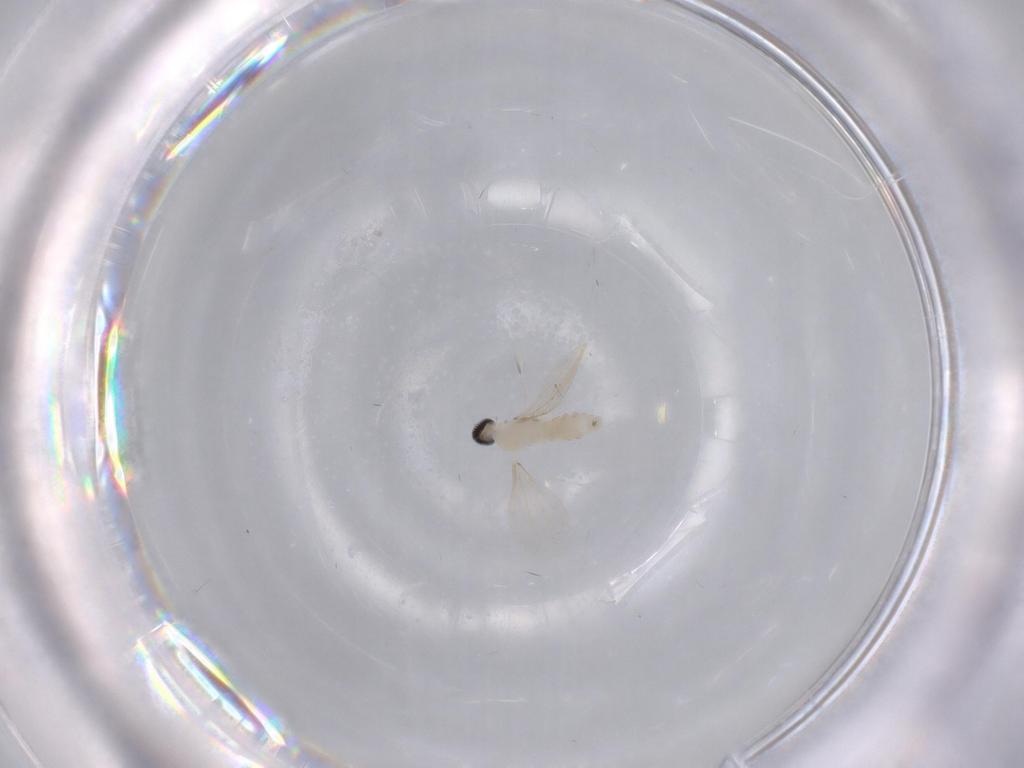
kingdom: Animalia
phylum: Arthropoda
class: Insecta
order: Diptera
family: Cecidomyiidae
